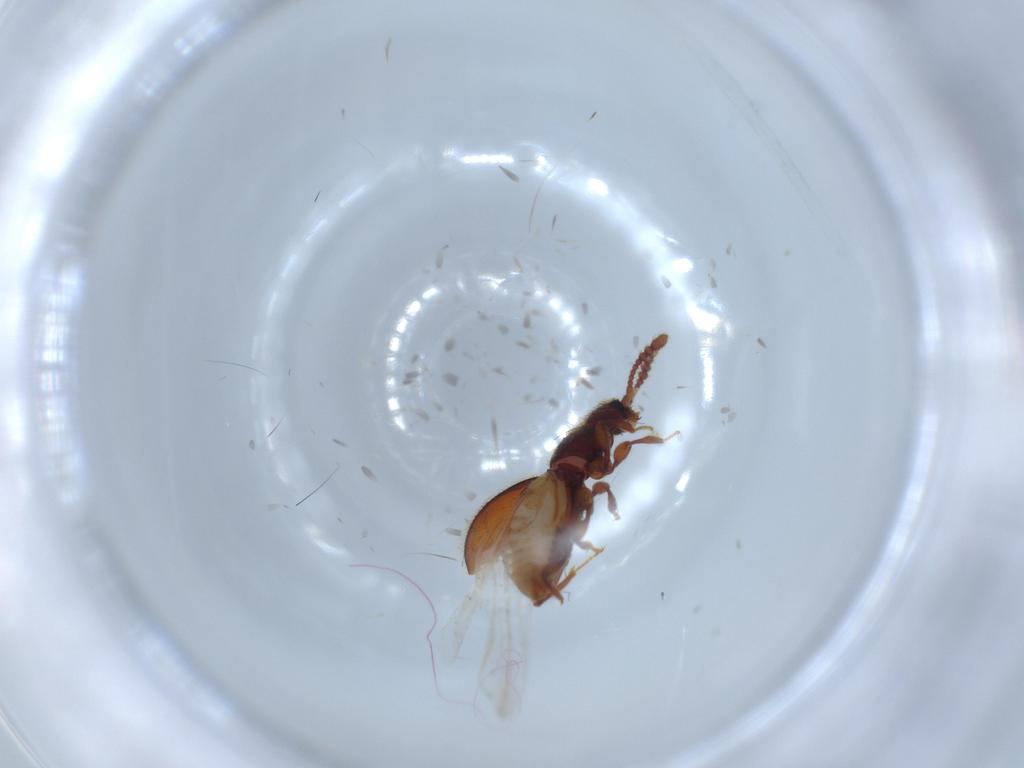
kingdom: Animalia
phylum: Arthropoda
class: Insecta
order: Coleoptera
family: Staphylinidae
